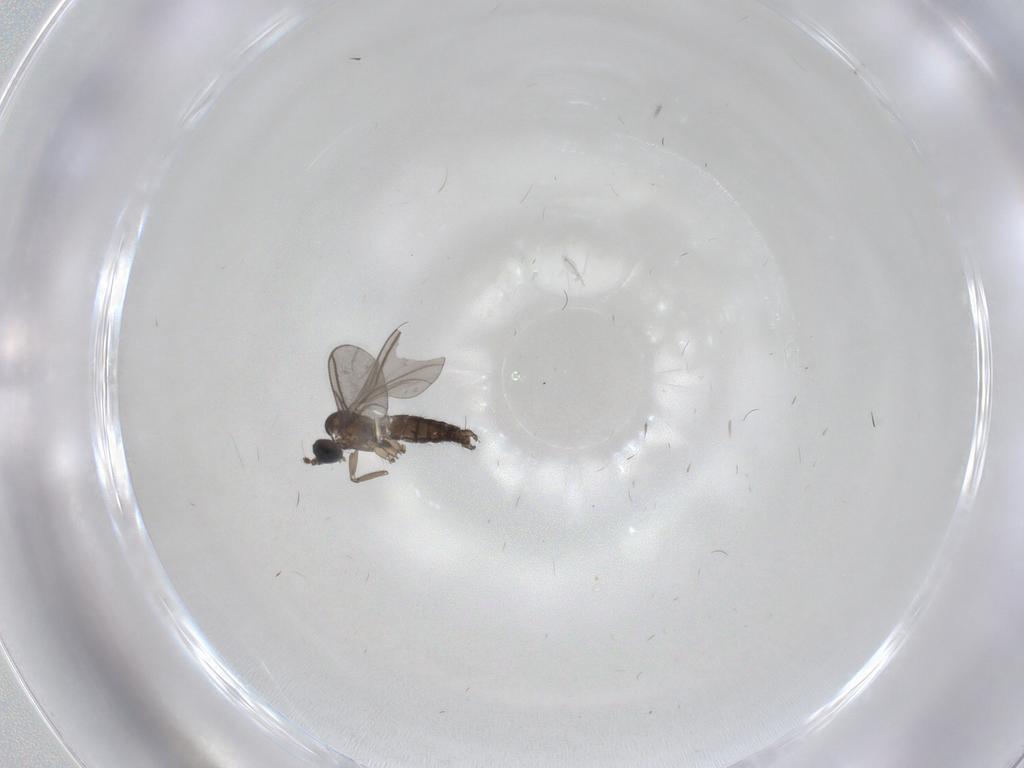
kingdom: Animalia
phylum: Arthropoda
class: Insecta
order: Diptera
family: Limoniidae
